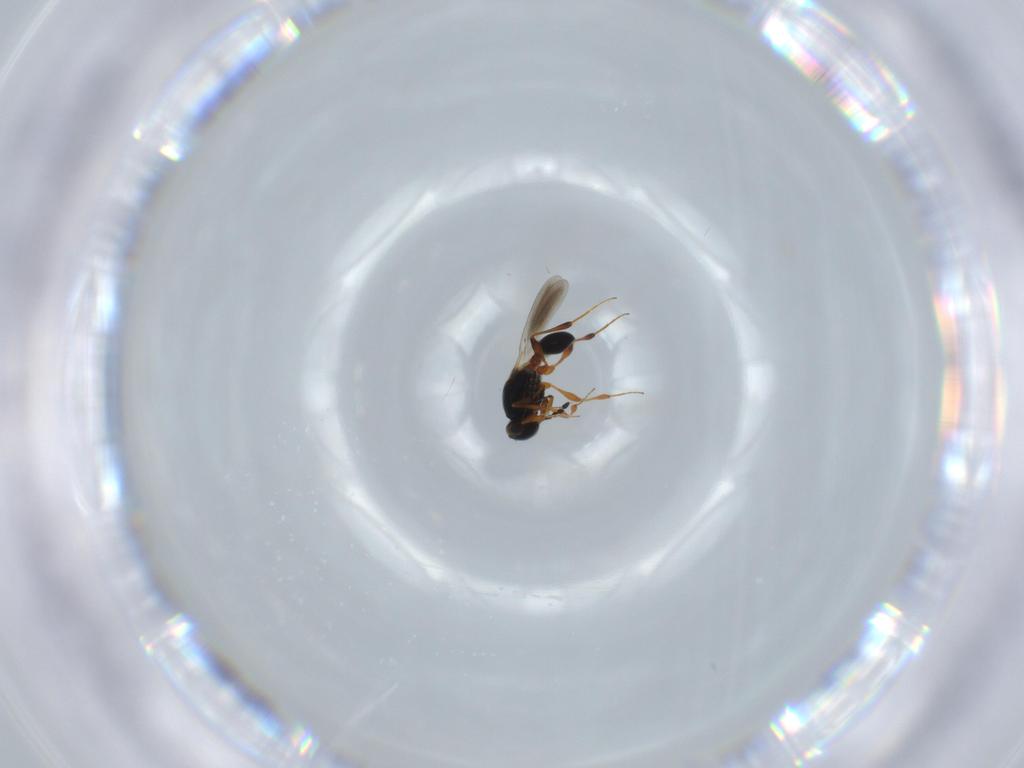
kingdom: Animalia
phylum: Arthropoda
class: Insecta
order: Hymenoptera
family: Platygastridae
